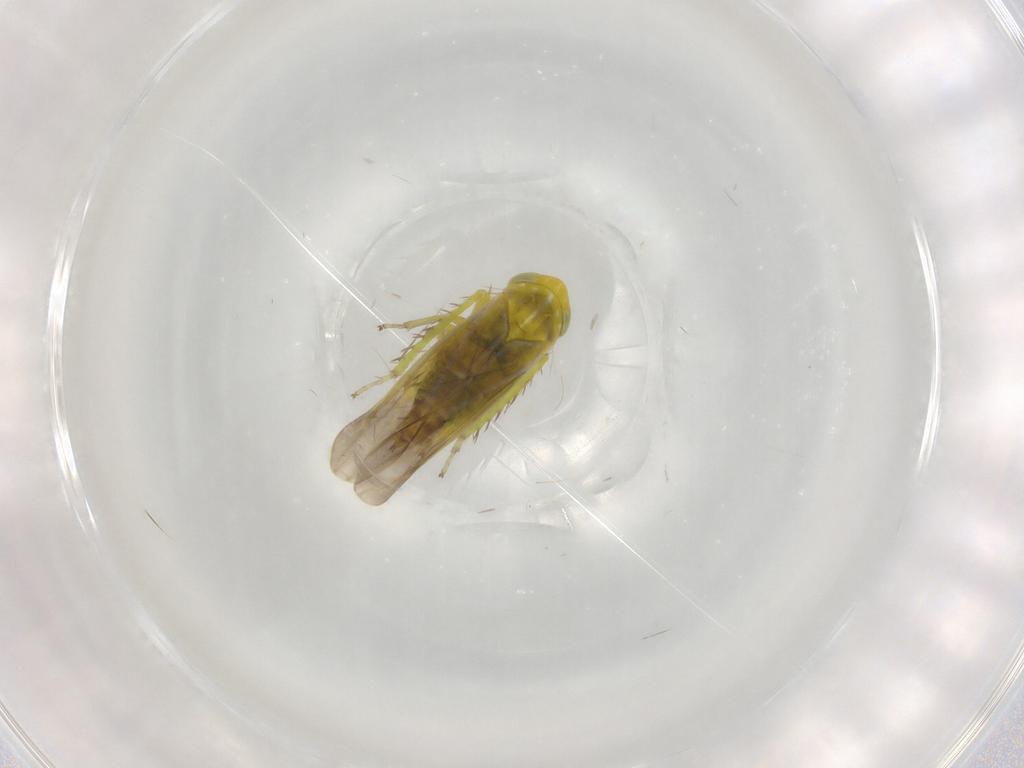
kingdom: Animalia
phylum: Arthropoda
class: Insecta
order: Hemiptera
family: Cicadellidae
